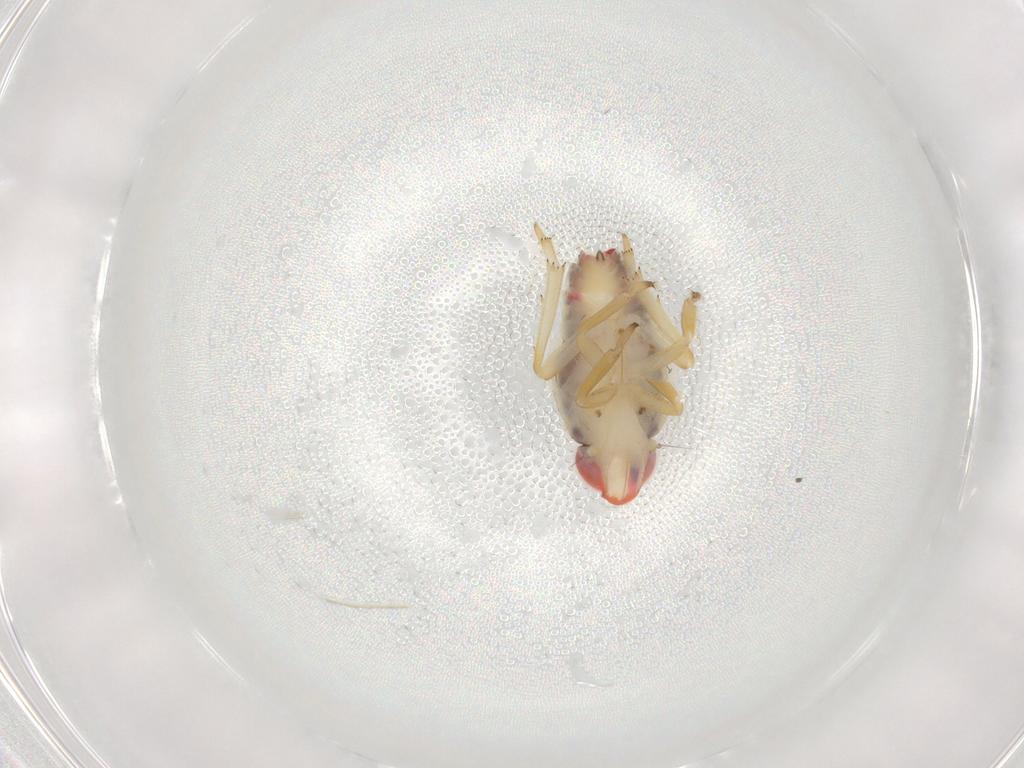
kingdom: Animalia
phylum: Arthropoda
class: Insecta
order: Hemiptera
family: Issidae
